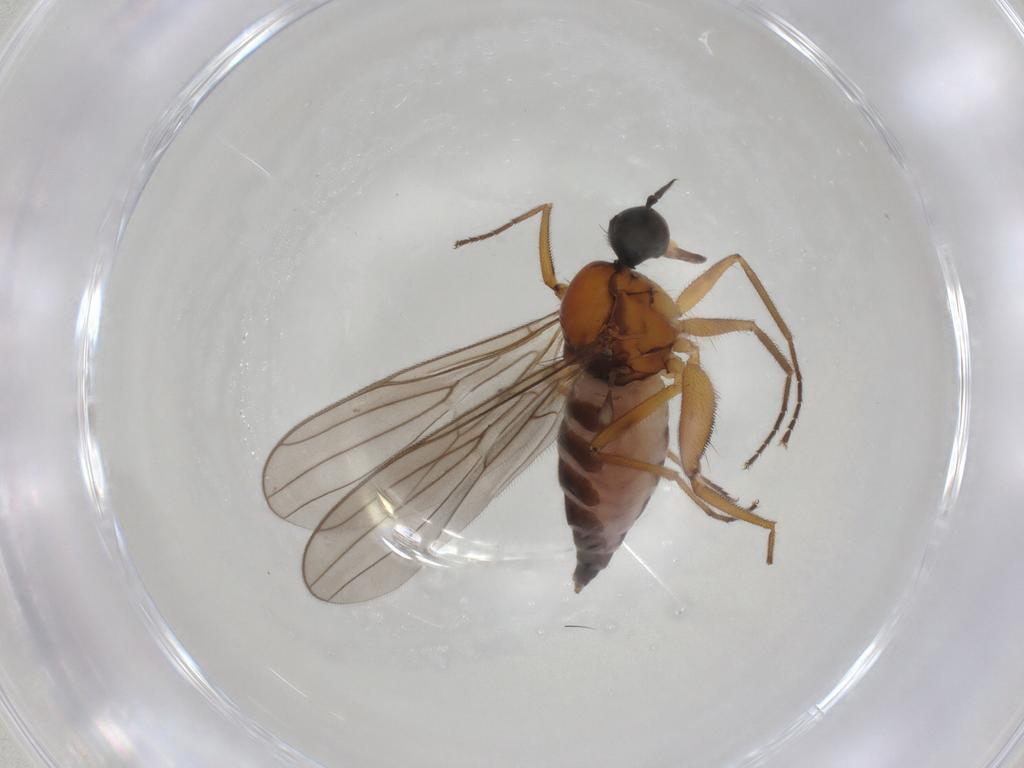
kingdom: Animalia
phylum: Arthropoda
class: Insecta
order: Diptera
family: Hybotidae
